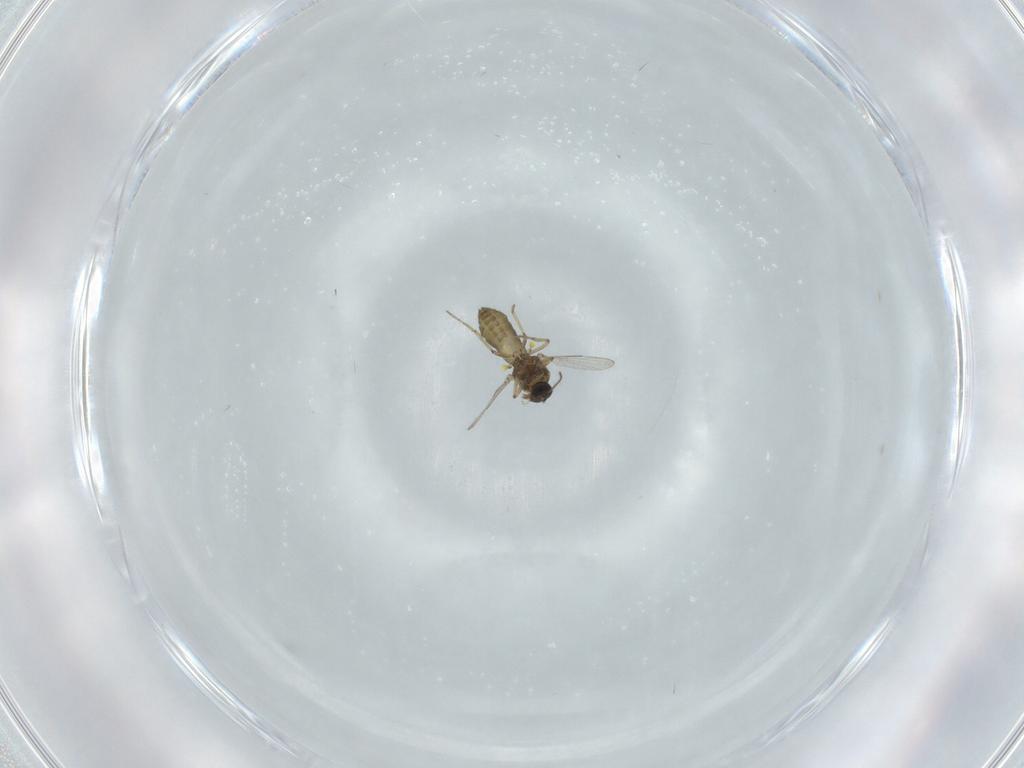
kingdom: Animalia
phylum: Arthropoda
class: Insecta
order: Diptera
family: Ceratopogonidae
